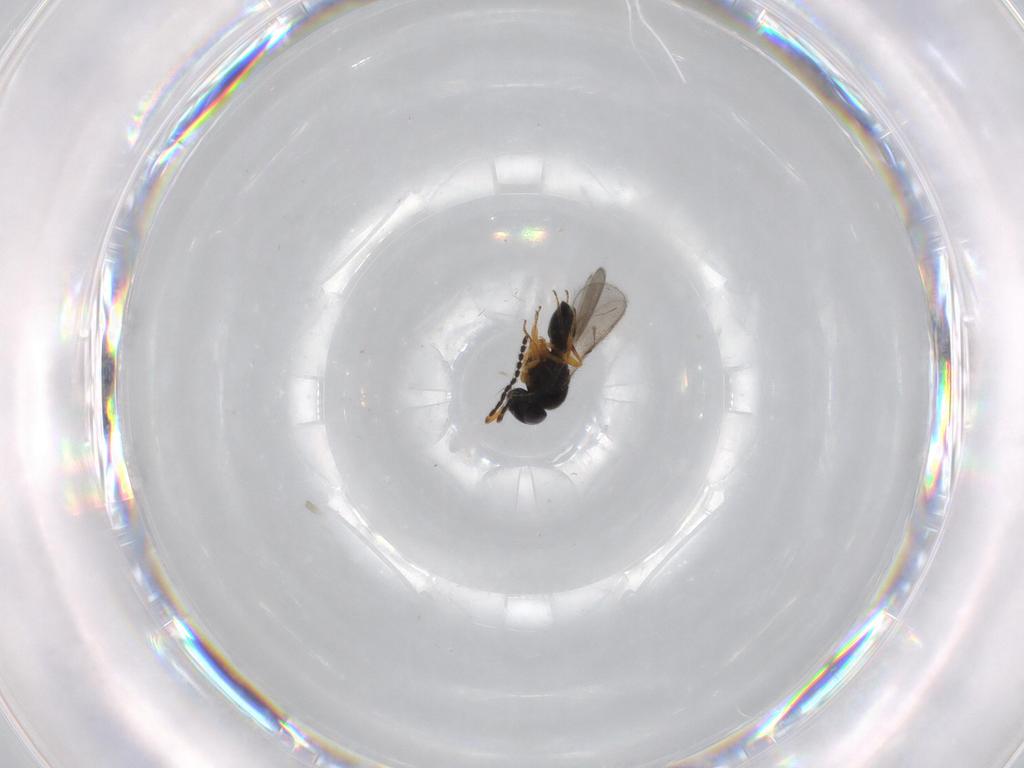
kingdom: Animalia
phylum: Arthropoda
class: Insecta
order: Hymenoptera
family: Scelionidae
